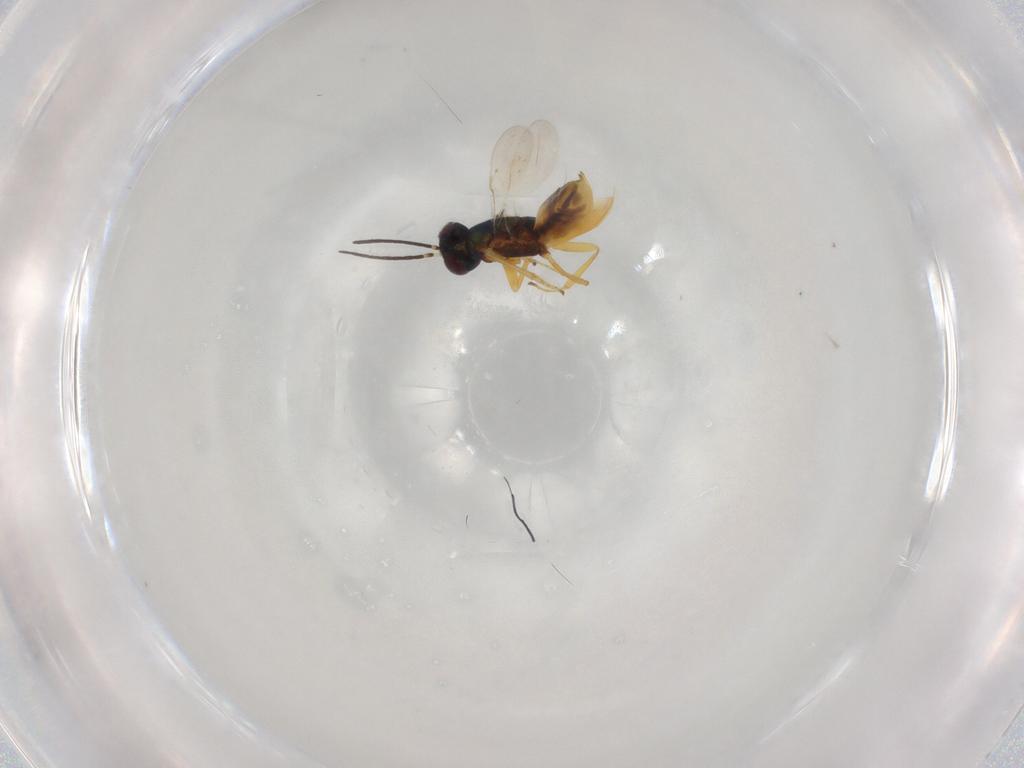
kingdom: Animalia
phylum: Arthropoda
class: Insecta
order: Hymenoptera
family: Encyrtidae
